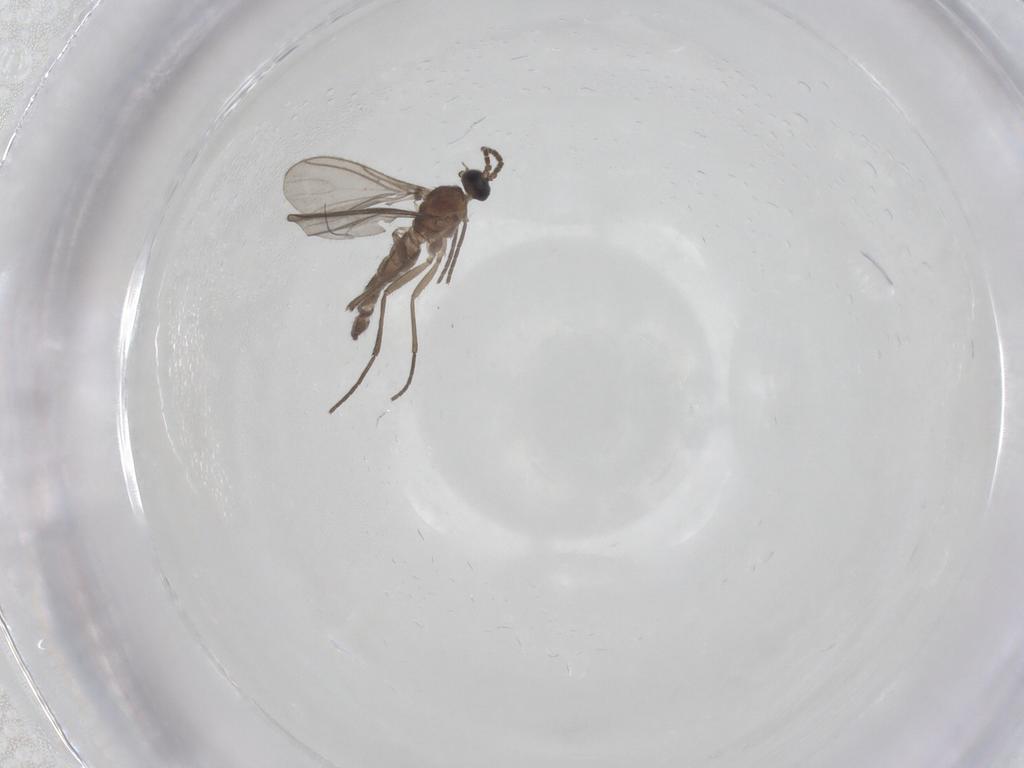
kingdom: Animalia
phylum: Arthropoda
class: Insecta
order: Diptera
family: Sciaridae
